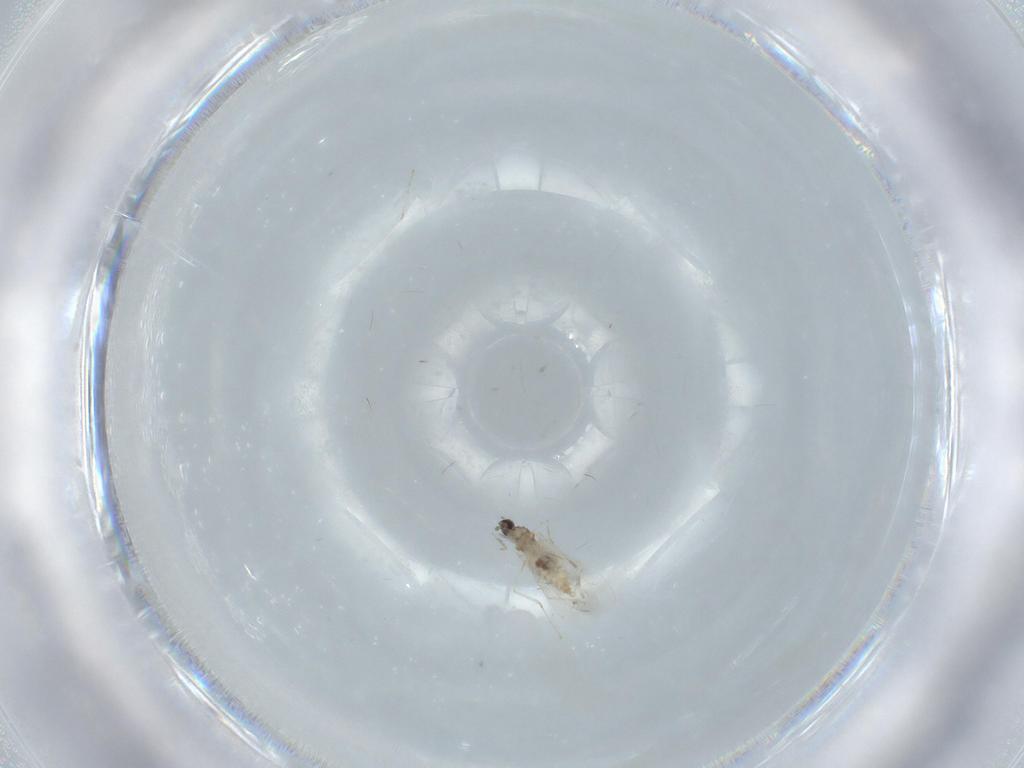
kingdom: Animalia
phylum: Arthropoda
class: Insecta
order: Diptera
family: Cecidomyiidae
